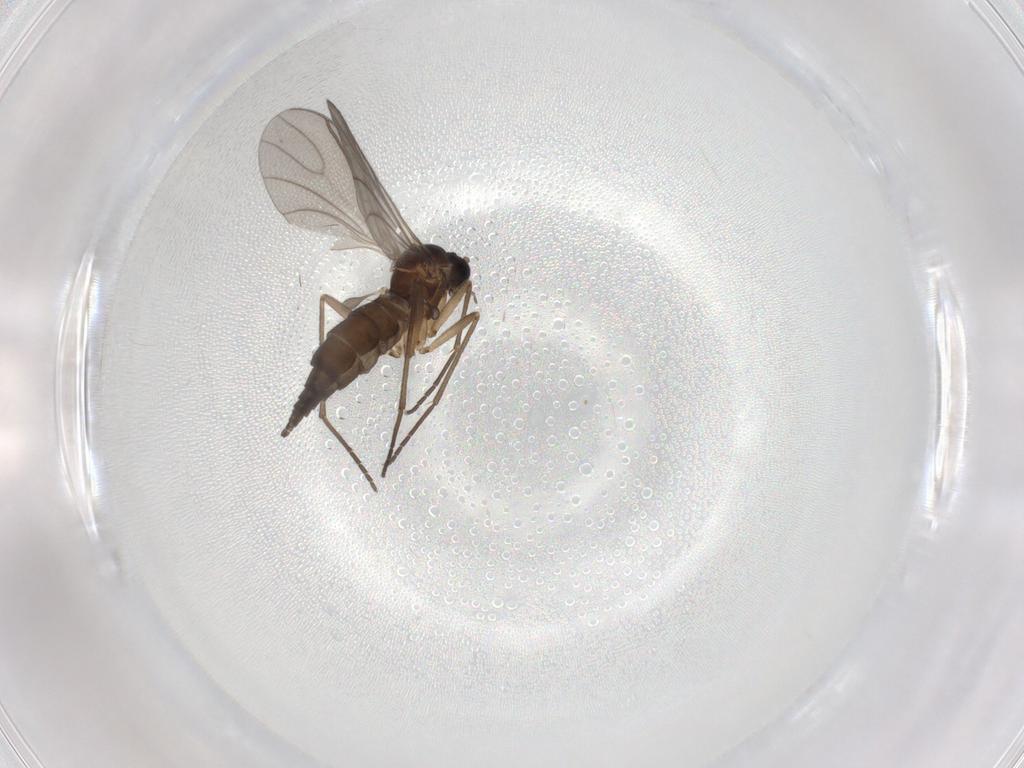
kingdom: Animalia
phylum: Arthropoda
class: Insecta
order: Diptera
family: Sciaridae
